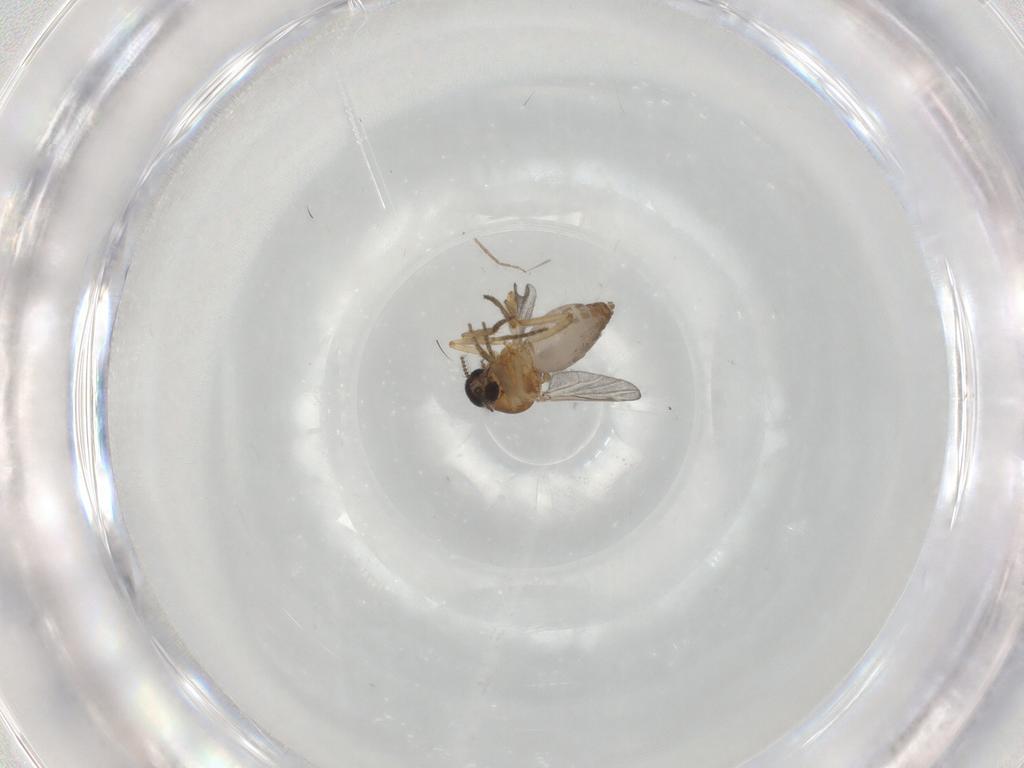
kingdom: Animalia
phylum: Arthropoda
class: Insecta
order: Diptera
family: Ceratopogonidae
